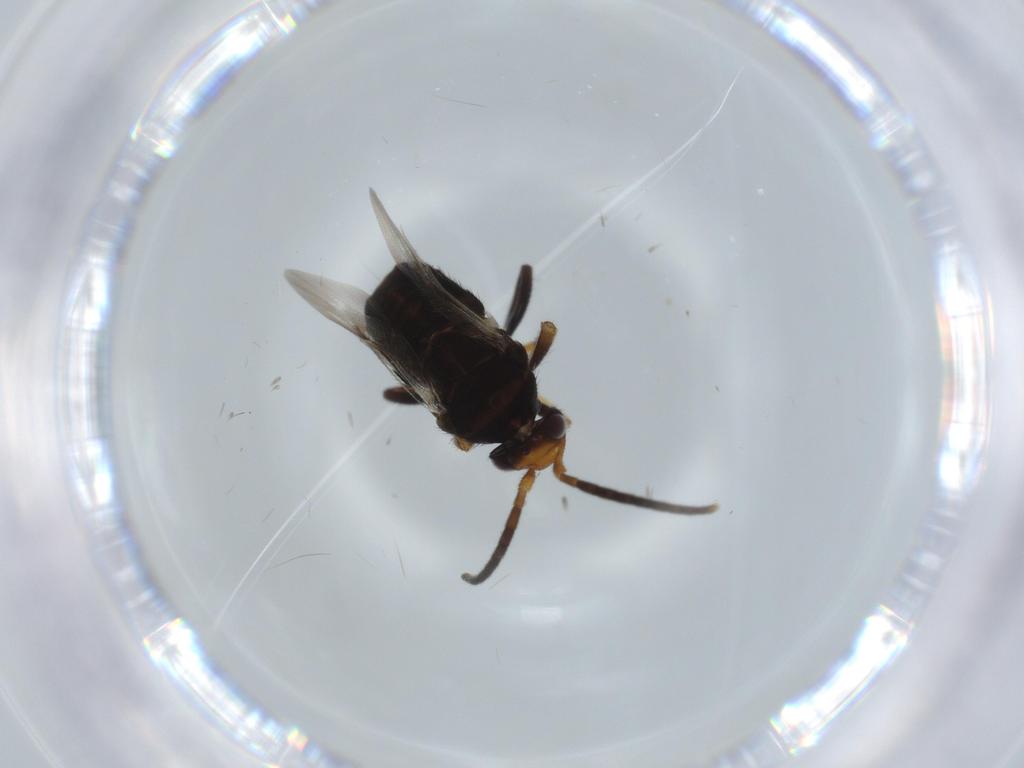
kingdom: Animalia
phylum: Arthropoda
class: Insecta
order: Hymenoptera
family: Encyrtidae
